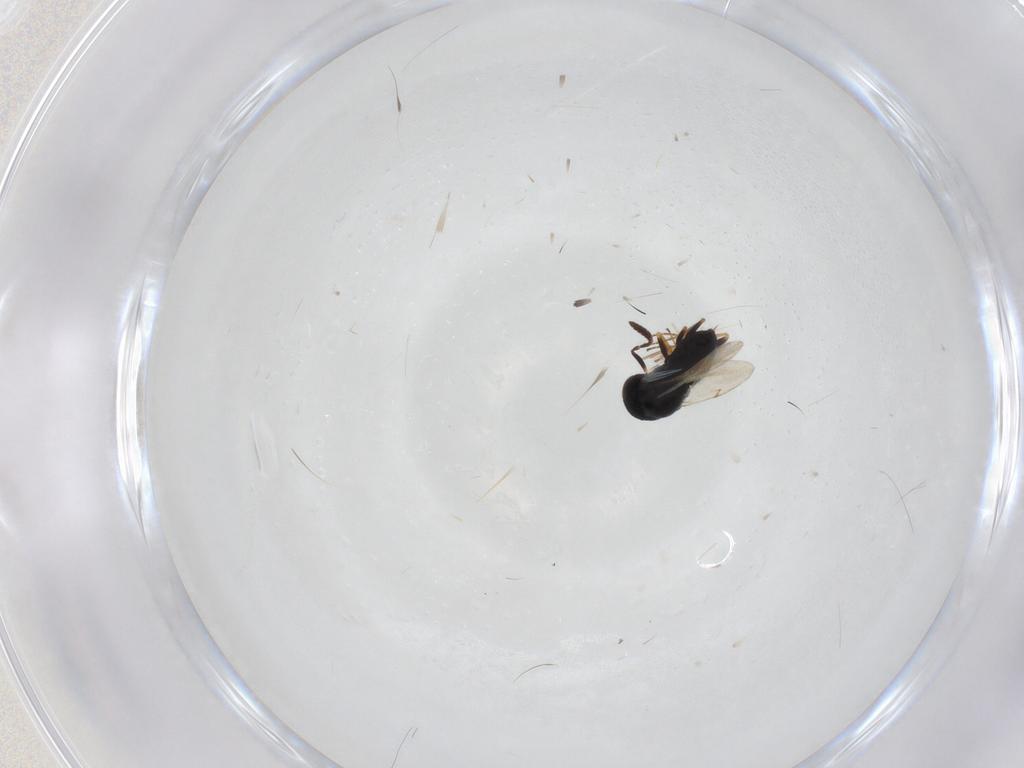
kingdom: Animalia
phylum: Arthropoda
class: Insecta
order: Hymenoptera
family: Scelionidae
